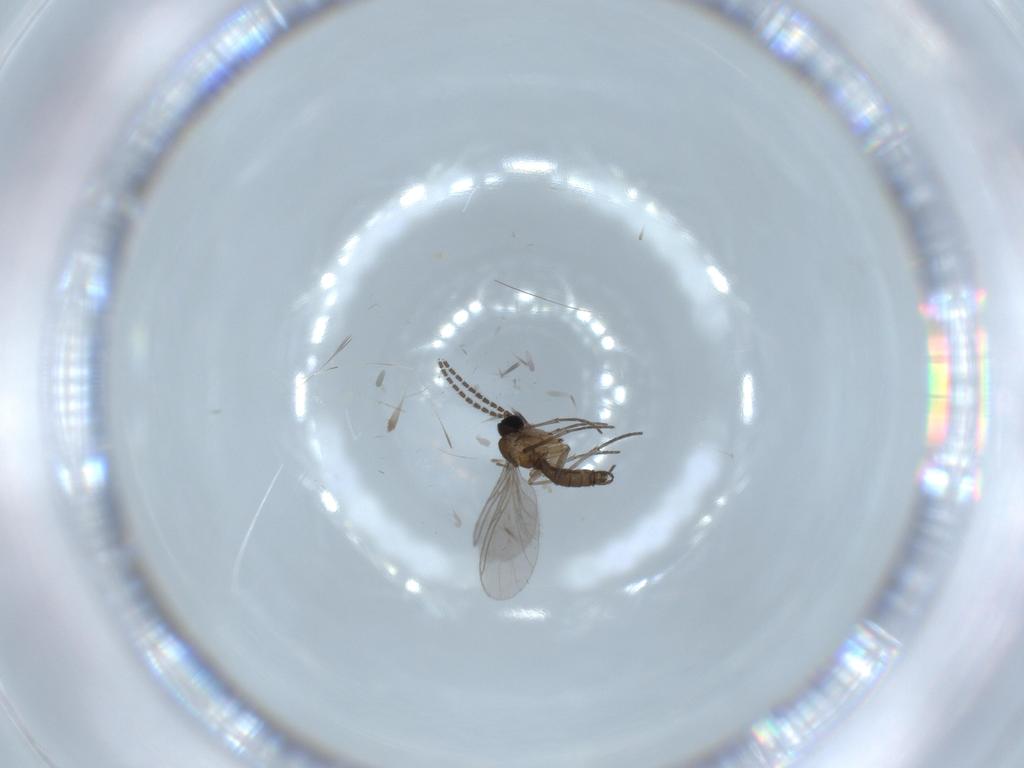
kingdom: Animalia
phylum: Arthropoda
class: Insecta
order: Diptera
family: Sciaridae
